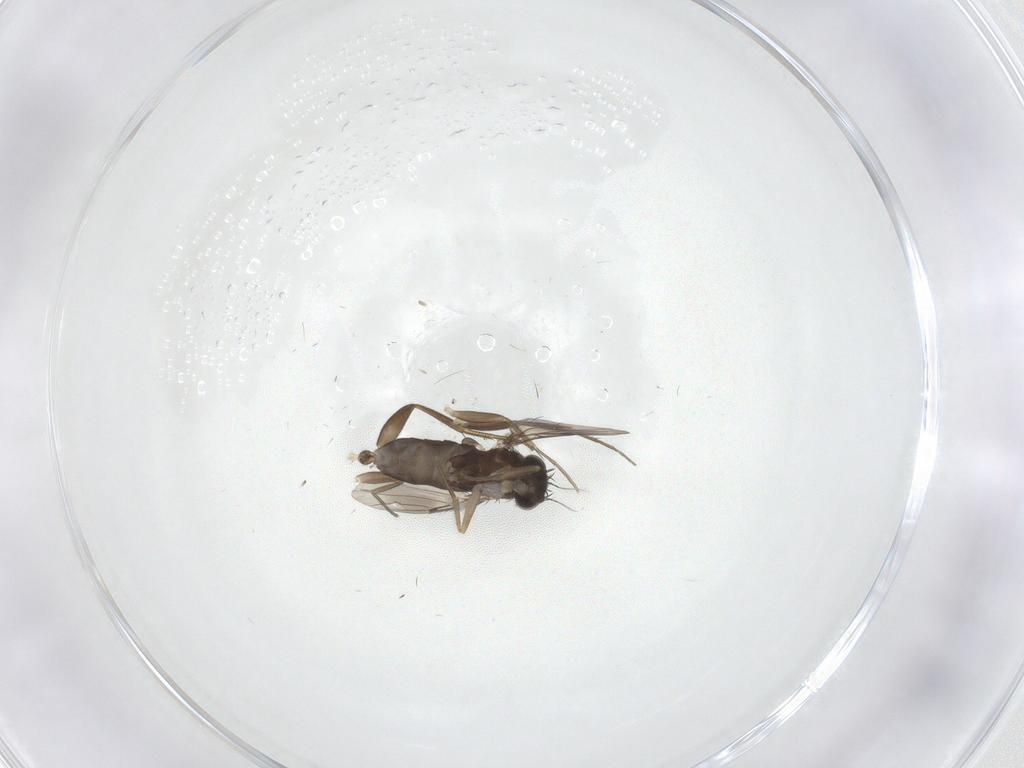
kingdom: Animalia
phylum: Arthropoda
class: Insecta
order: Diptera
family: Phoridae
